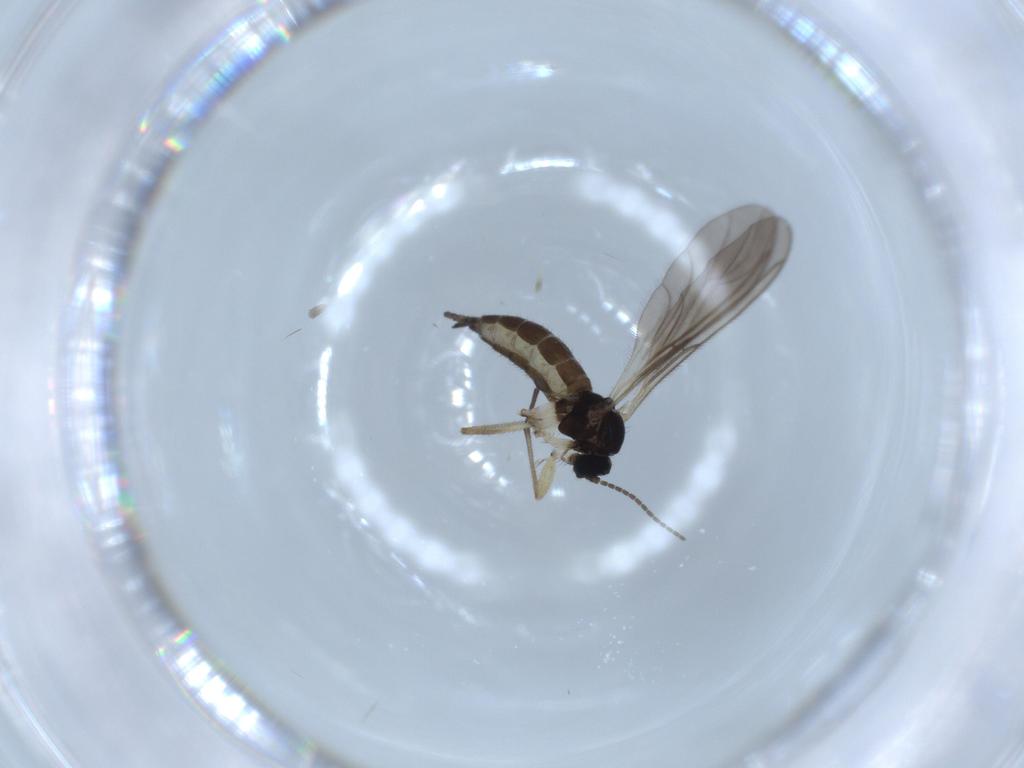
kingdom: Animalia
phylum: Arthropoda
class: Insecta
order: Diptera
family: Sciaridae
